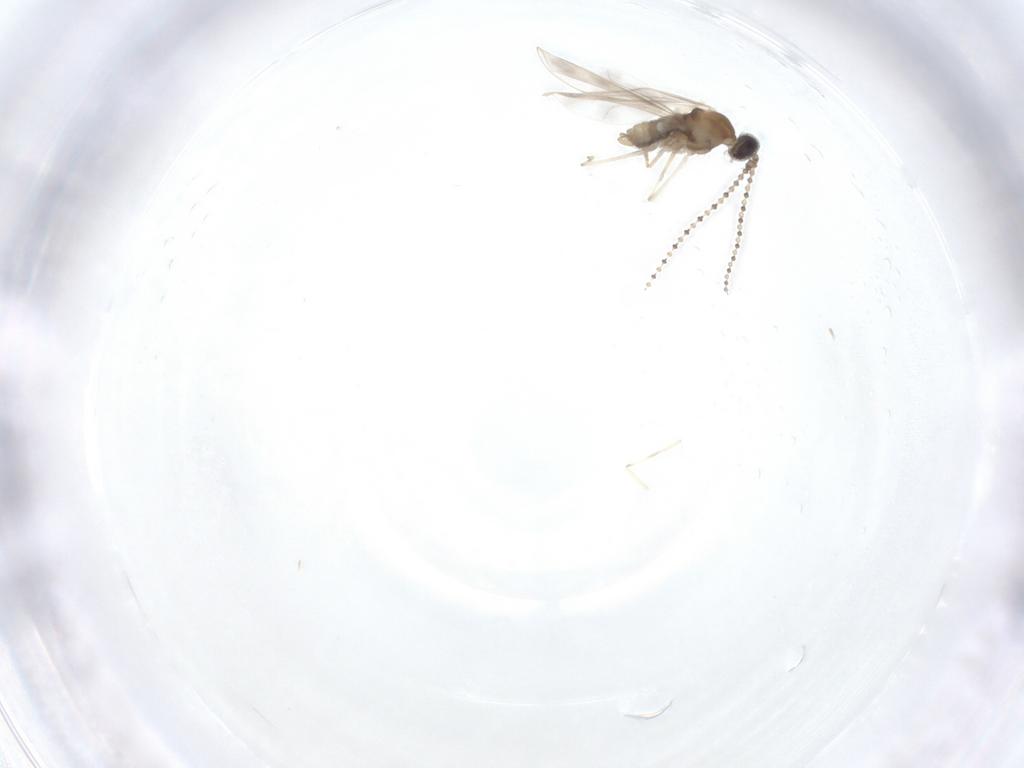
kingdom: Animalia
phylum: Arthropoda
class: Insecta
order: Diptera
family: Cecidomyiidae
